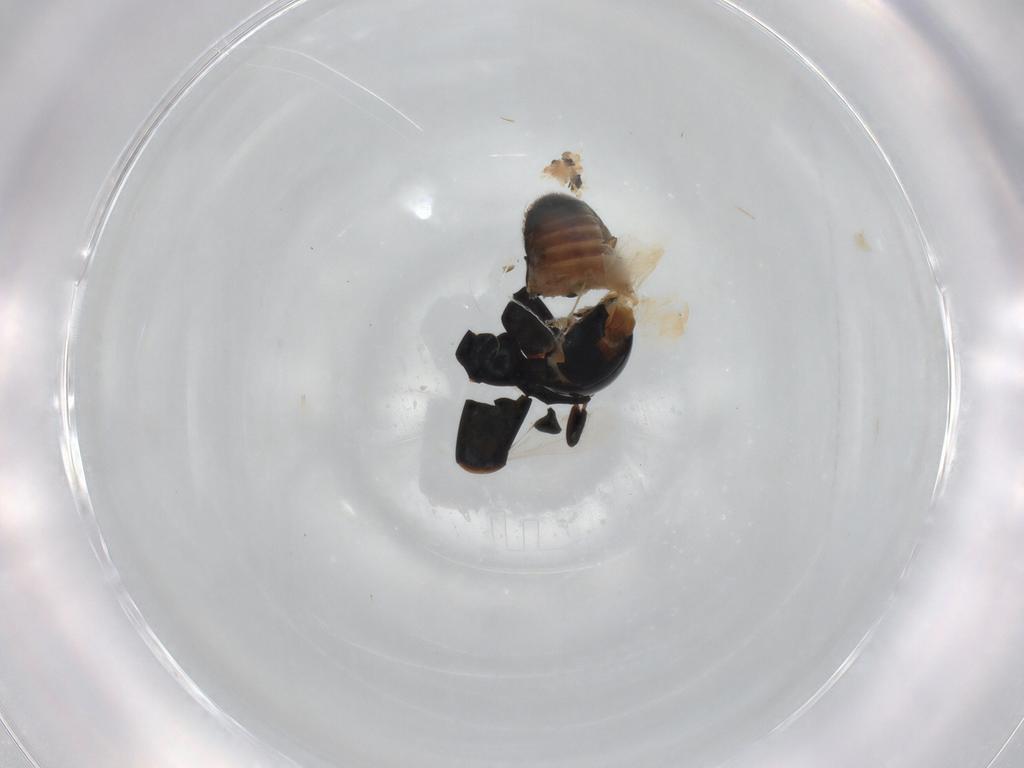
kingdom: Animalia
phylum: Arthropoda
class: Insecta
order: Coleoptera
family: Cybocephalidae
